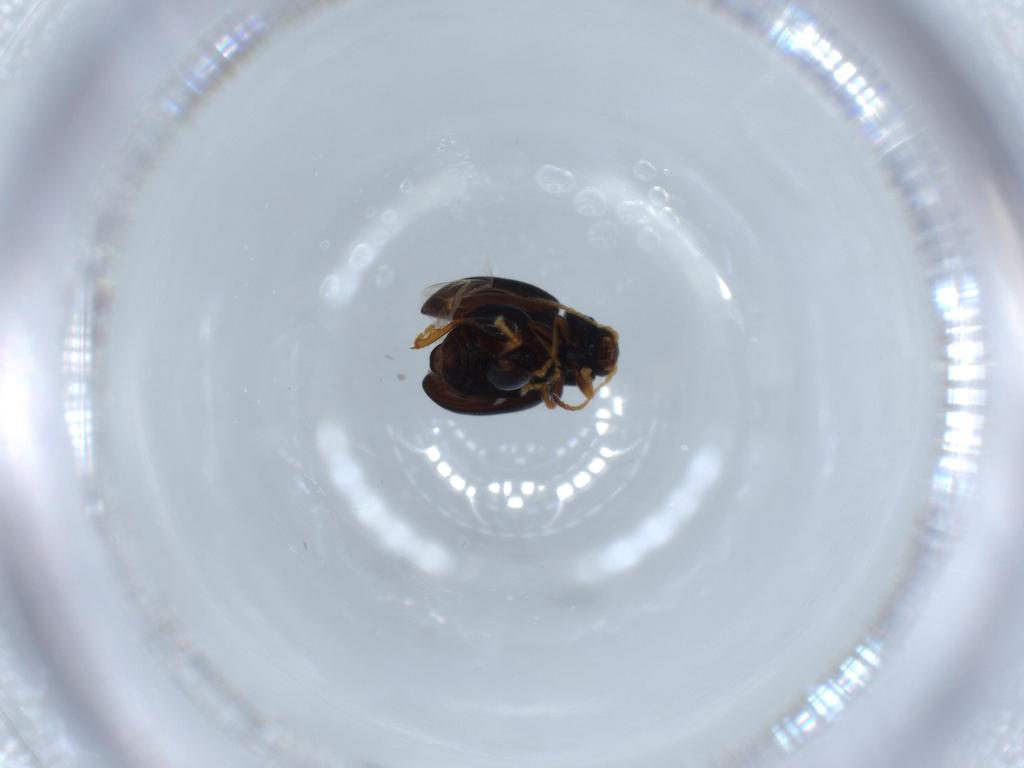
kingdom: Animalia
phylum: Arthropoda
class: Insecta
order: Coleoptera
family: Chrysomelidae
